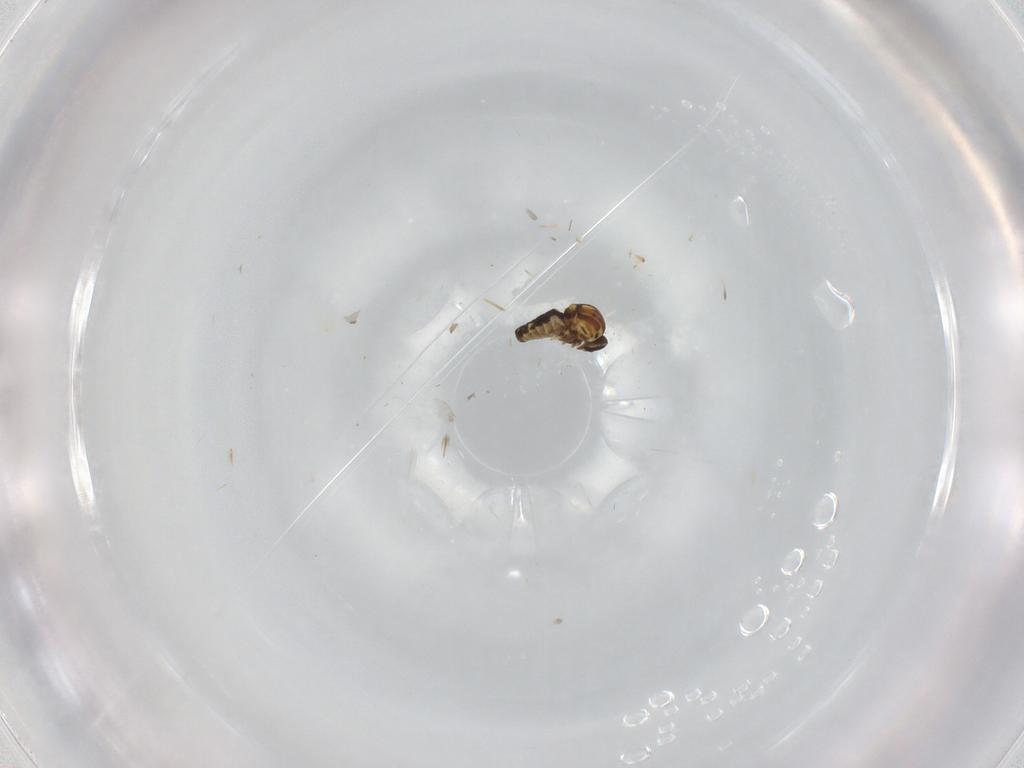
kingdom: Animalia
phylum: Arthropoda
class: Insecta
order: Diptera
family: Ceratopogonidae
